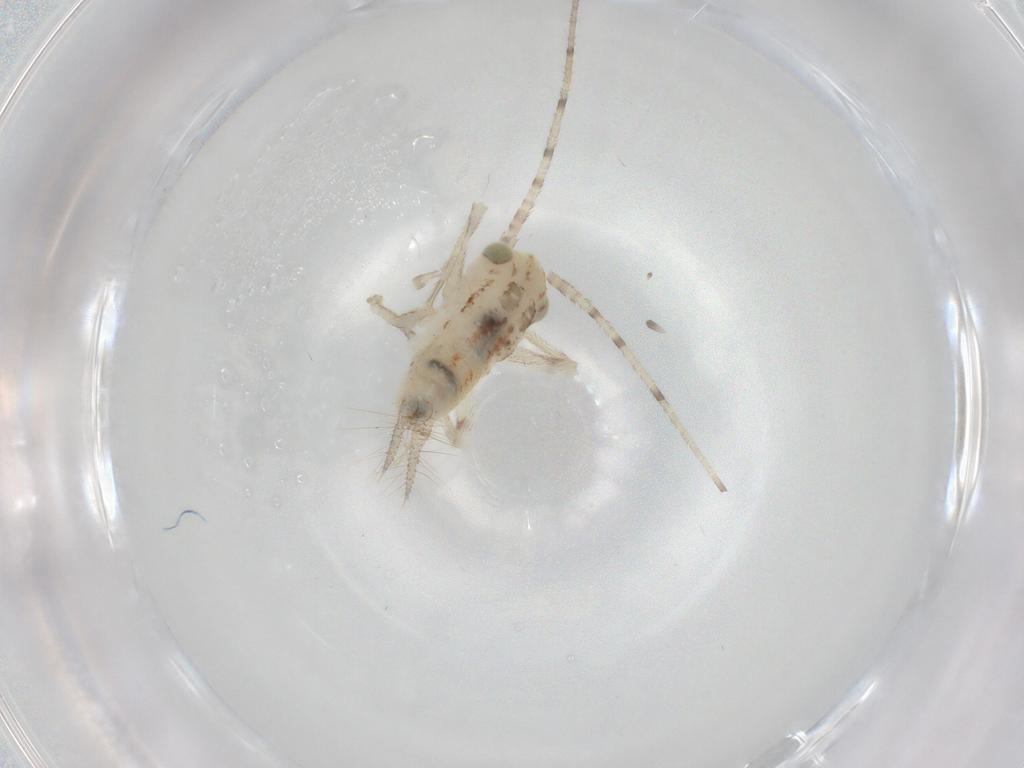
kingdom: Animalia
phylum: Arthropoda
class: Insecta
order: Orthoptera
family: Trigonidiidae
